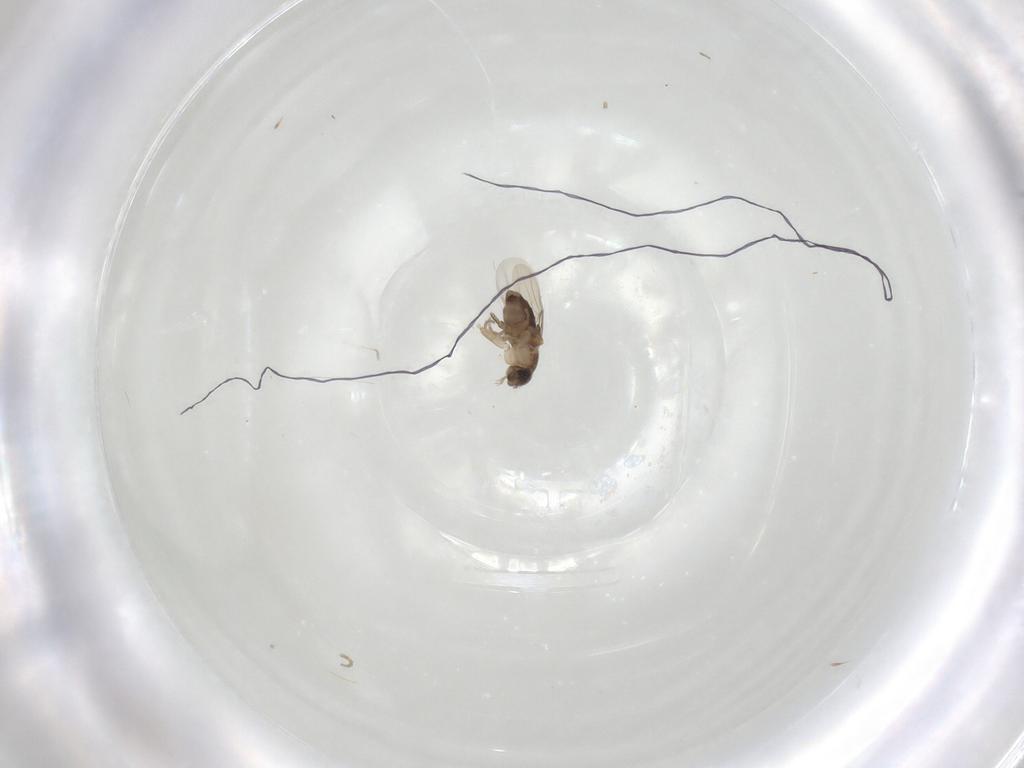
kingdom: Animalia
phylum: Arthropoda
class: Insecta
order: Diptera
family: Phoridae
